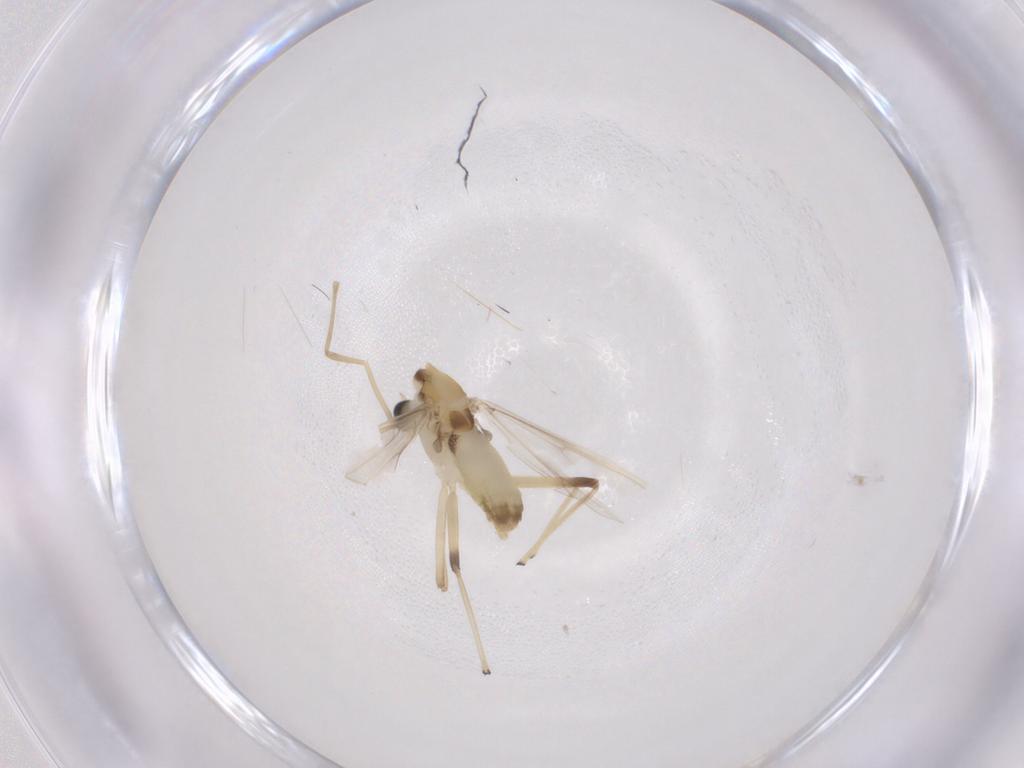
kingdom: Animalia
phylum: Arthropoda
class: Insecta
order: Diptera
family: Chironomidae
